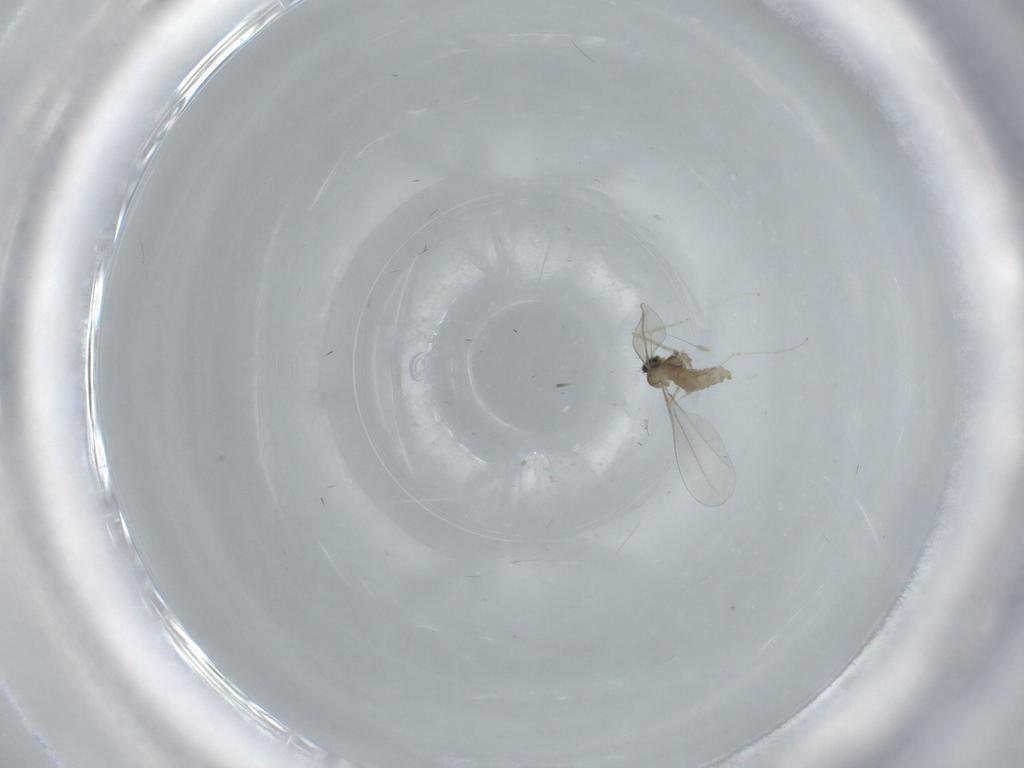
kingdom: Animalia
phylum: Arthropoda
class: Insecta
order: Diptera
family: Cecidomyiidae
